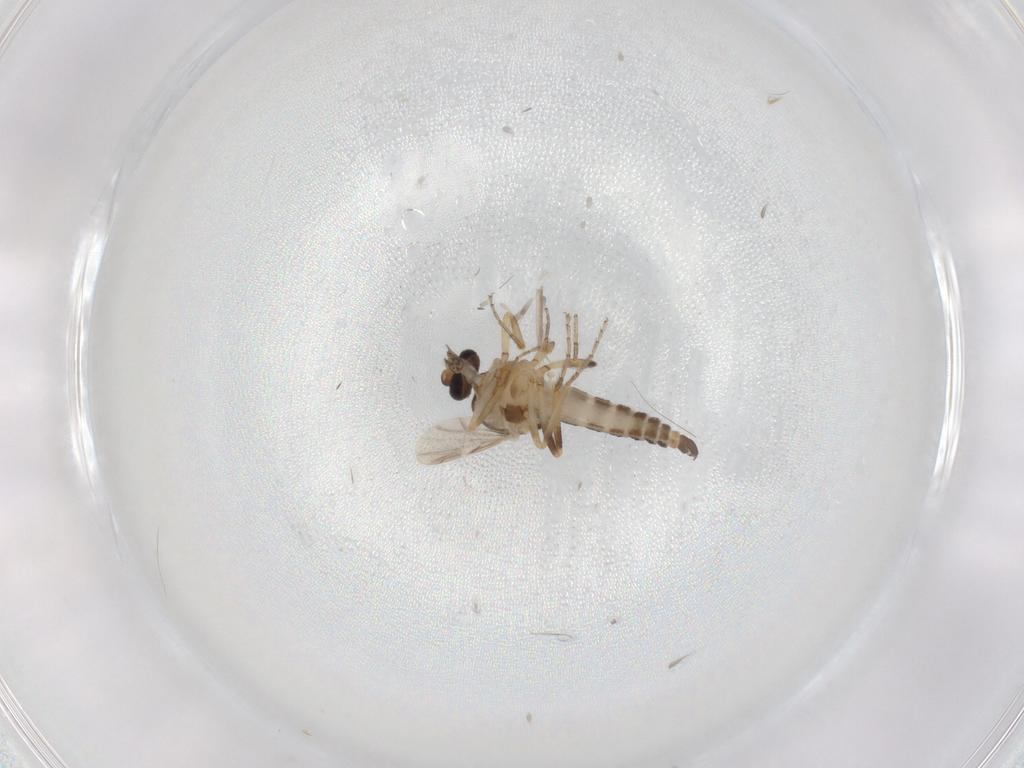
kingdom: Animalia
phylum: Arthropoda
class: Insecta
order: Diptera
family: Ceratopogonidae
